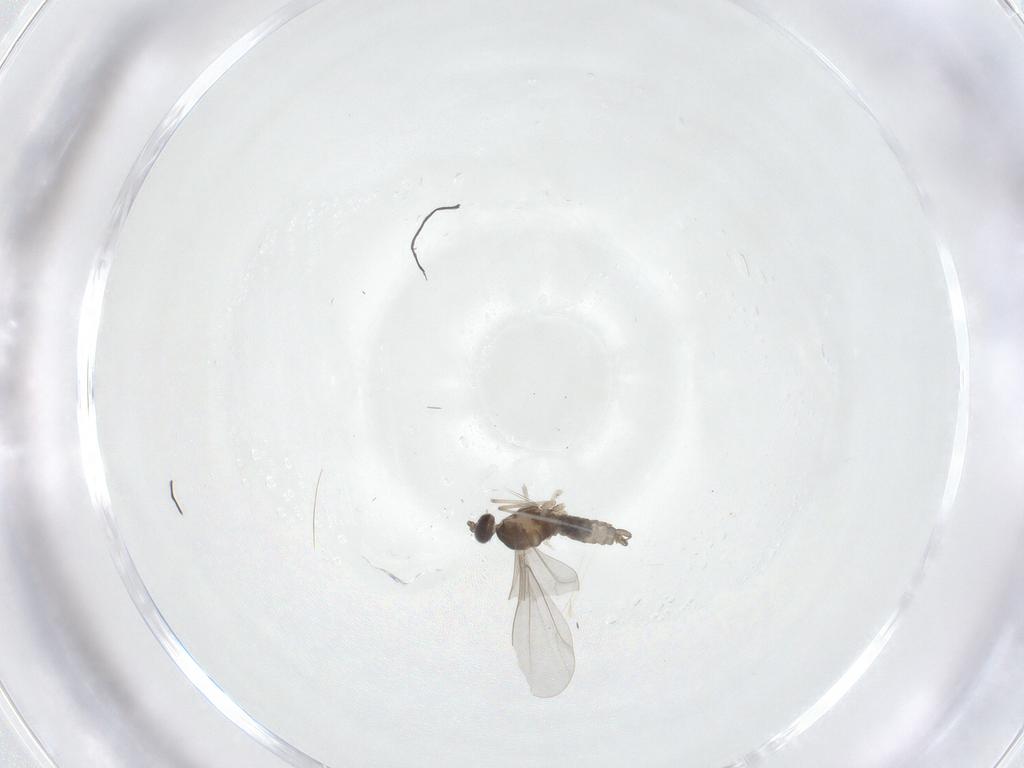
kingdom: Animalia
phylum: Arthropoda
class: Insecta
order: Diptera
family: Cecidomyiidae
